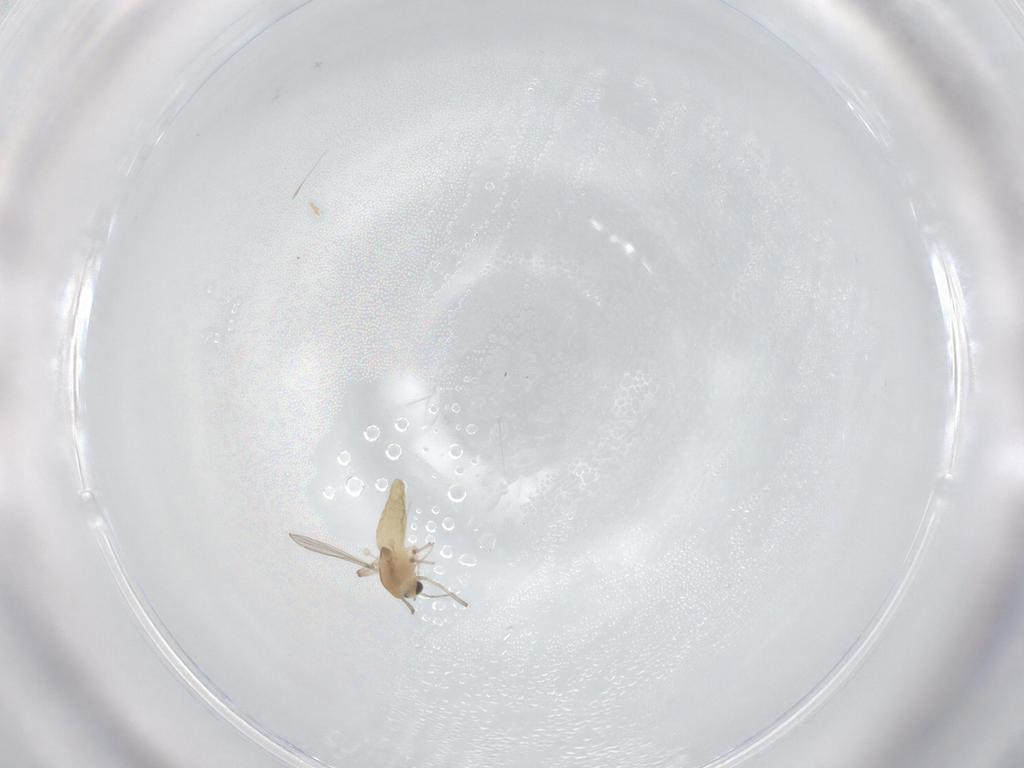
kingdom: Animalia
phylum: Arthropoda
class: Insecta
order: Diptera
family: Chironomidae
